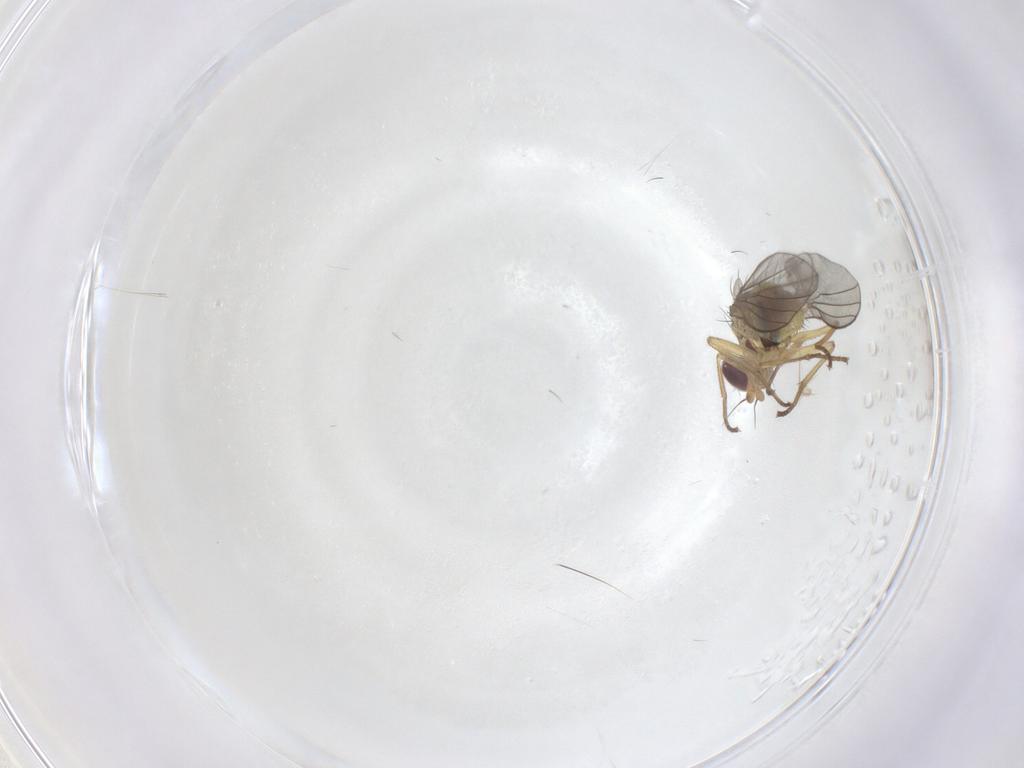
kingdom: Animalia
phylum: Arthropoda
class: Insecta
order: Diptera
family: Agromyzidae
